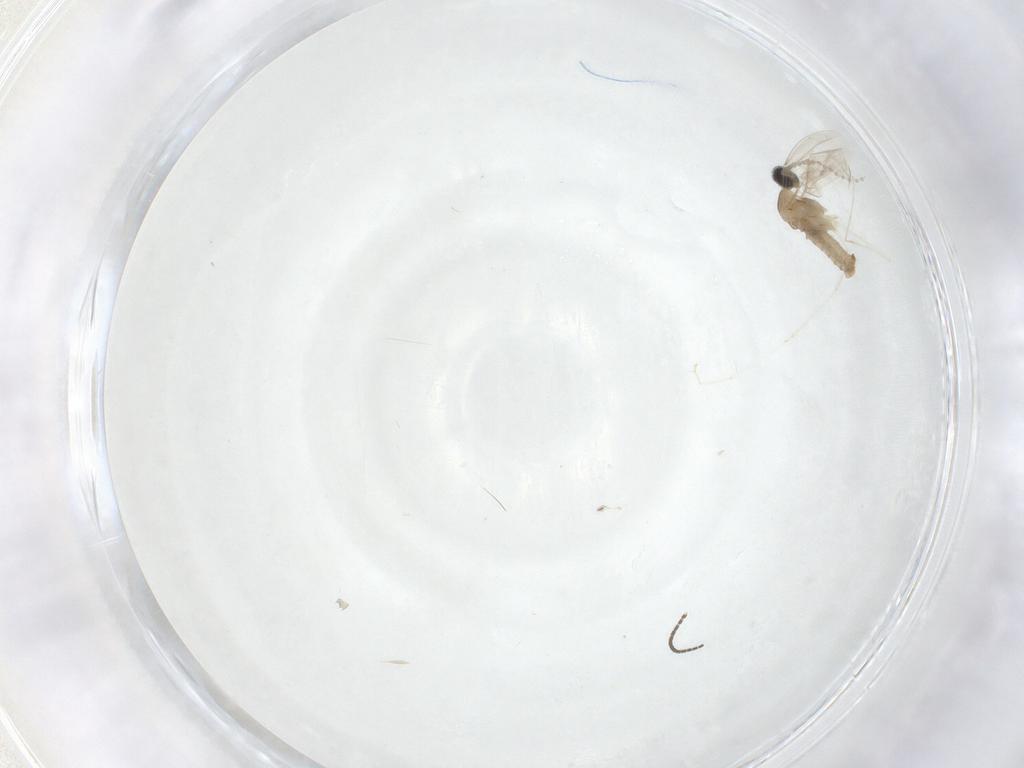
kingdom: Animalia
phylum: Arthropoda
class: Insecta
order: Diptera
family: Cecidomyiidae
